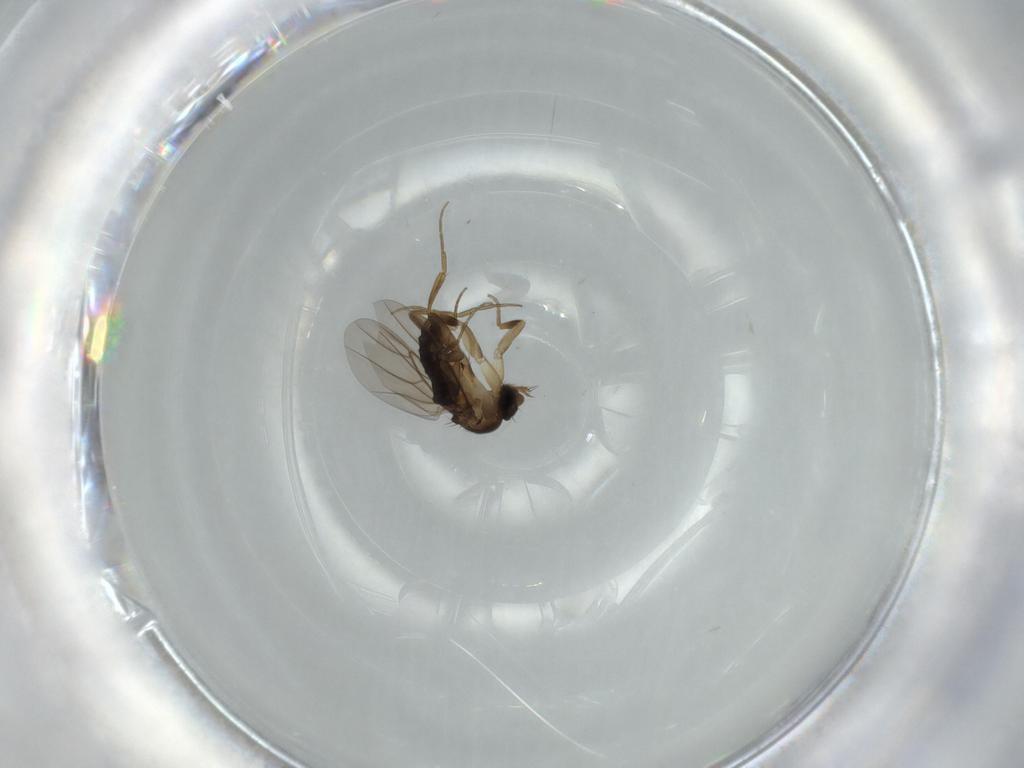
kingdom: Animalia
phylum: Arthropoda
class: Insecta
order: Diptera
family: Phoridae
